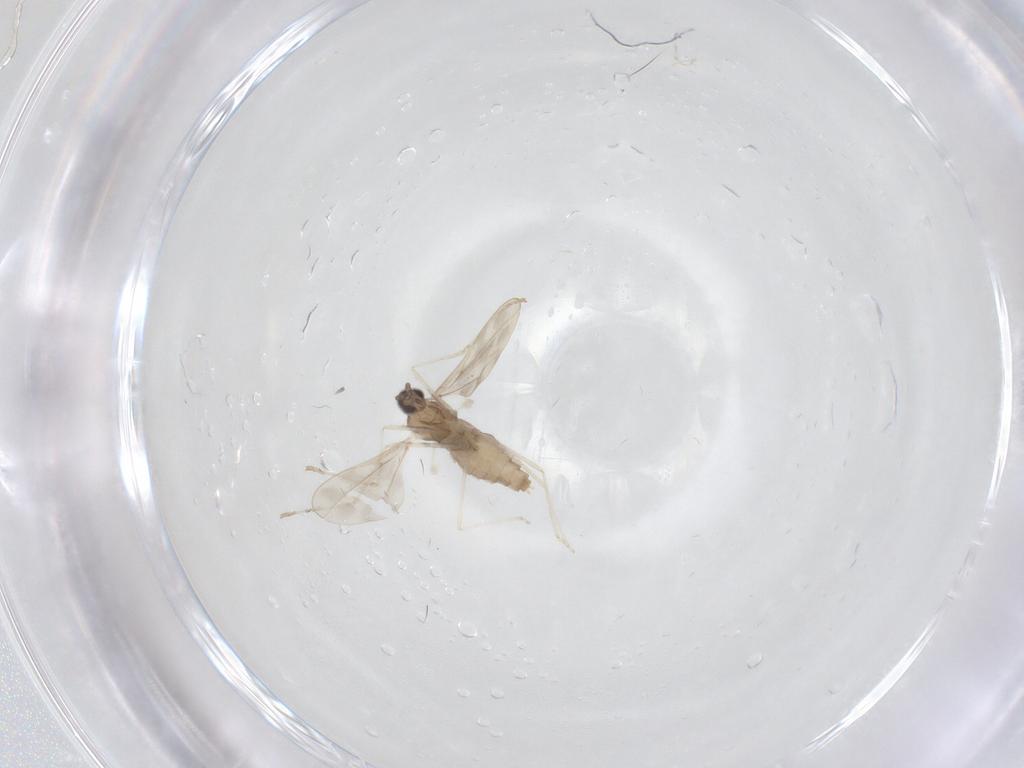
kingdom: Animalia
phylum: Arthropoda
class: Insecta
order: Diptera
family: Cecidomyiidae
